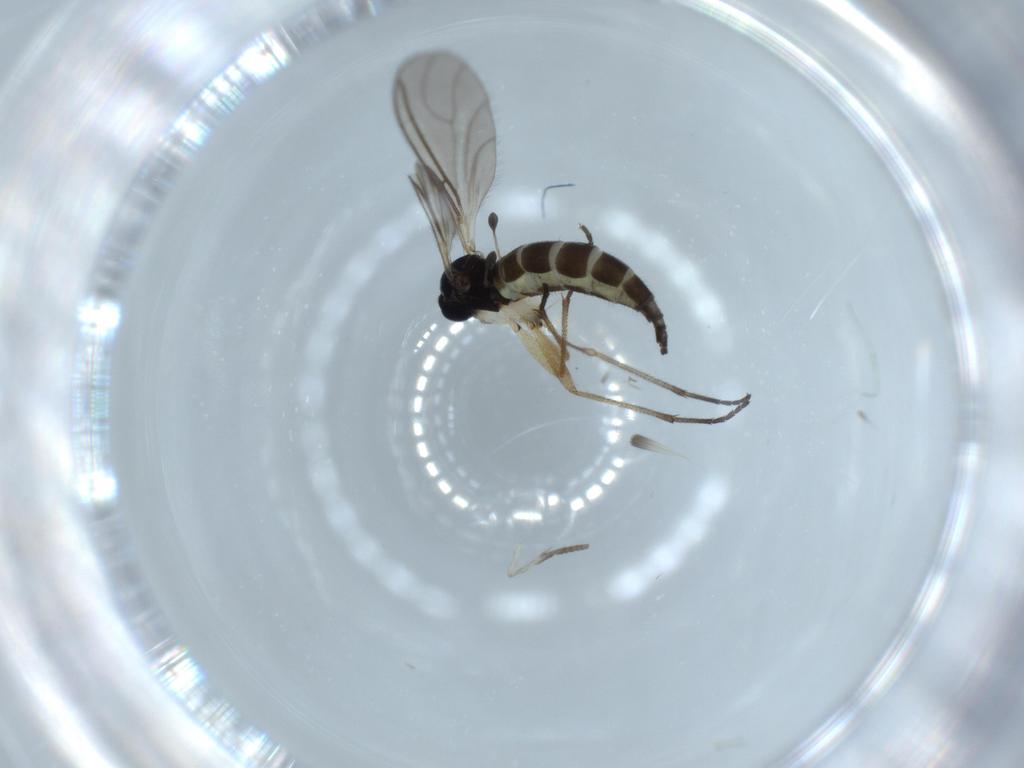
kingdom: Animalia
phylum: Arthropoda
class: Insecta
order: Diptera
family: Sciaridae
